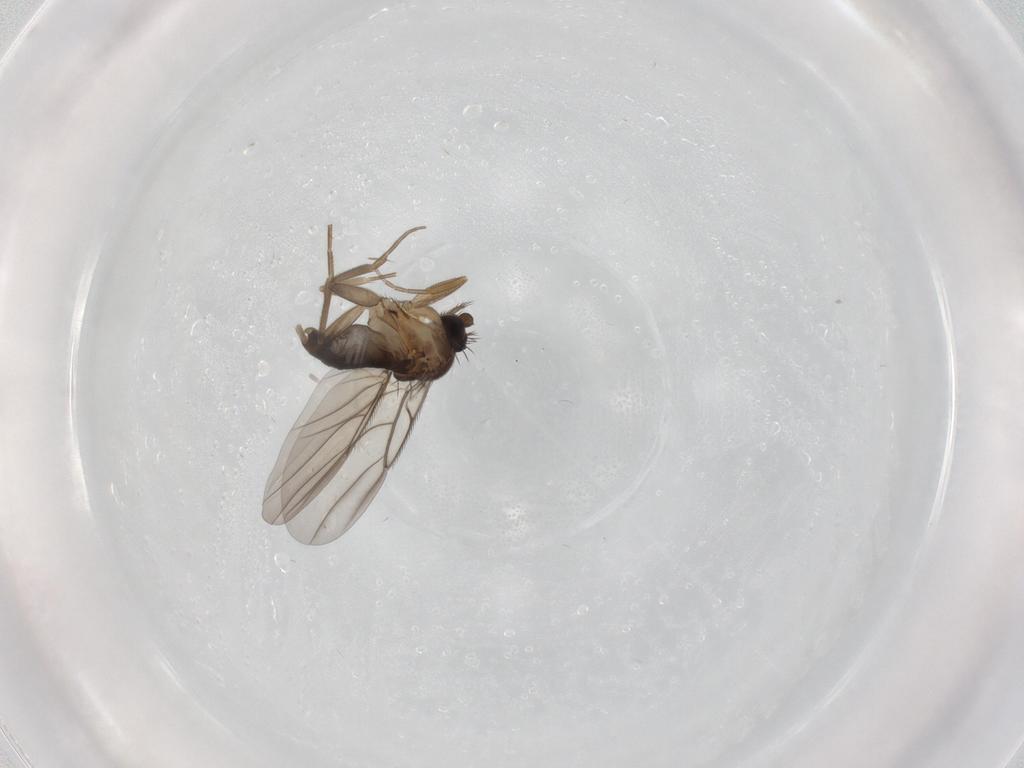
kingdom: Animalia
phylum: Arthropoda
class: Insecta
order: Diptera
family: Phoridae
